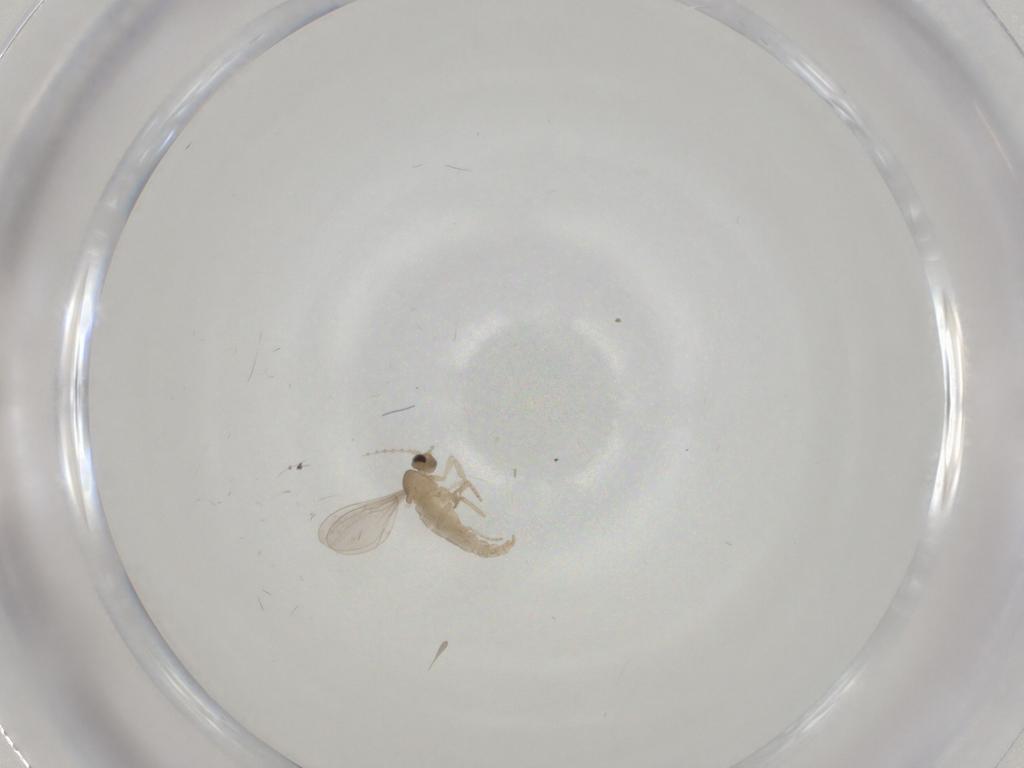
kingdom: Animalia
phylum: Arthropoda
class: Insecta
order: Diptera
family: Cecidomyiidae
